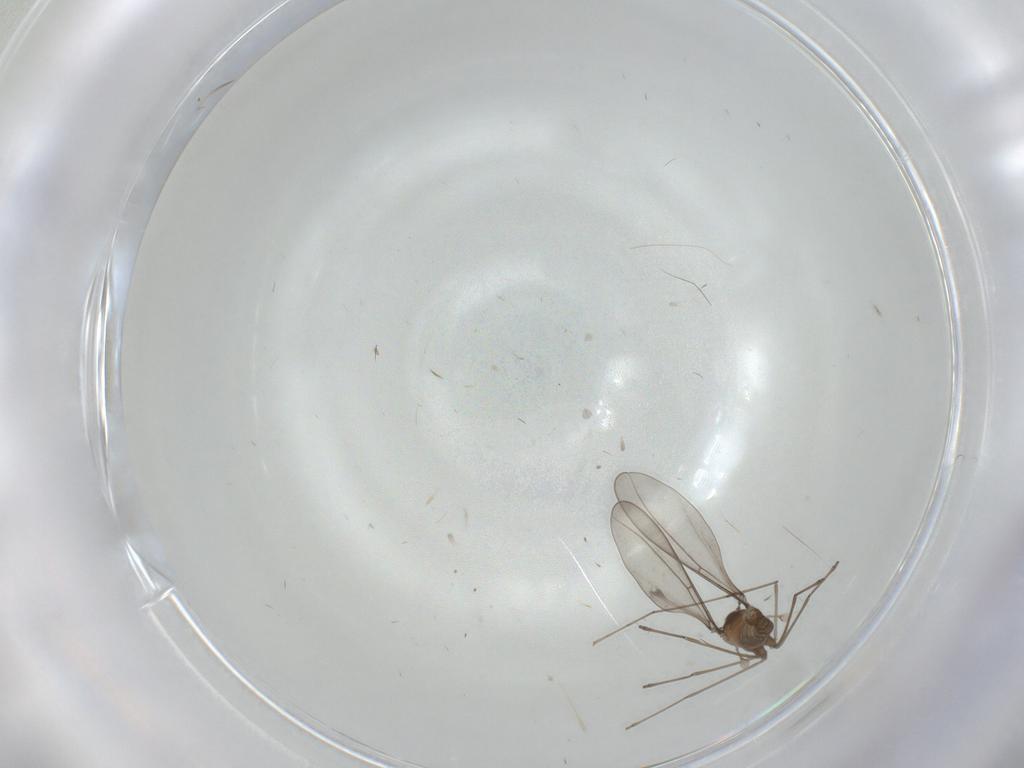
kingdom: Animalia
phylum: Arthropoda
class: Insecta
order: Diptera
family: Cecidomyiidae
